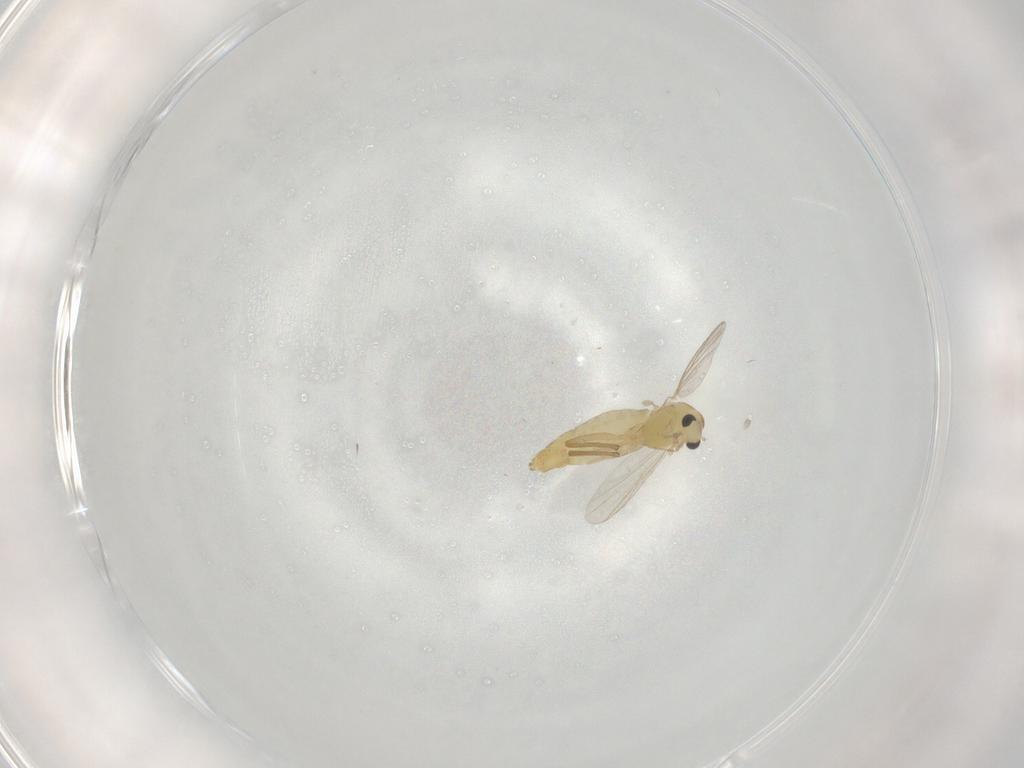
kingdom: Animalia
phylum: Arthropoda
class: Insecta
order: Diptera
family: Chironomidae
